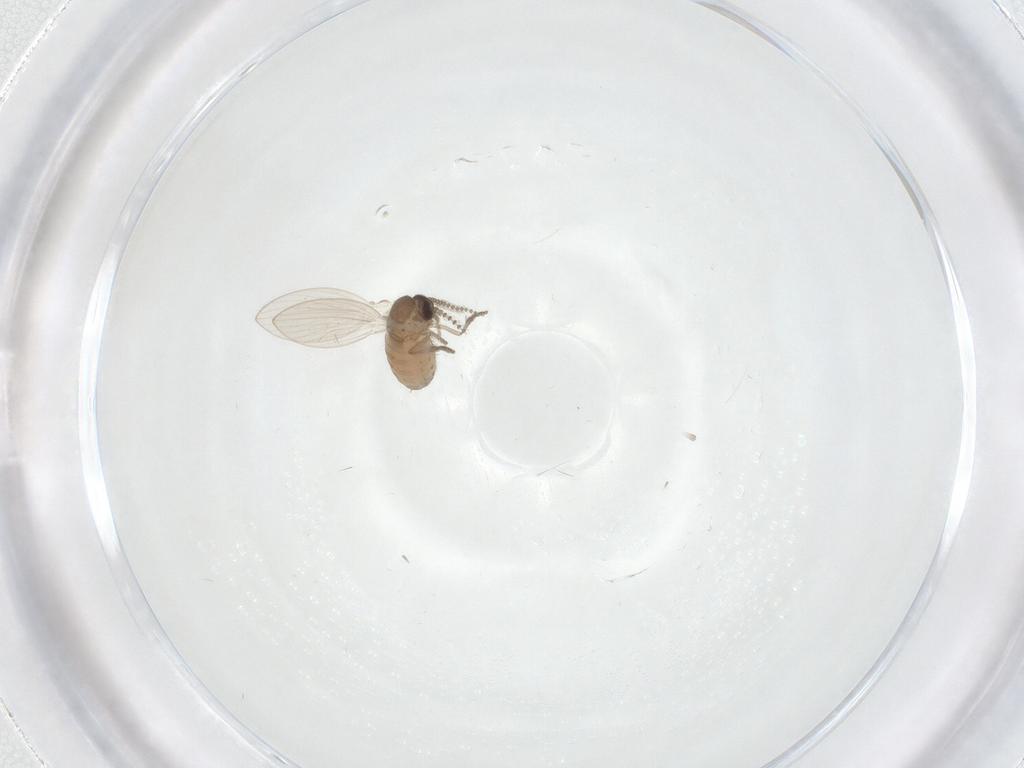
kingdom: Animalia
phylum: Arthropoda
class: Insecta
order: Diptera
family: Psychodidae
